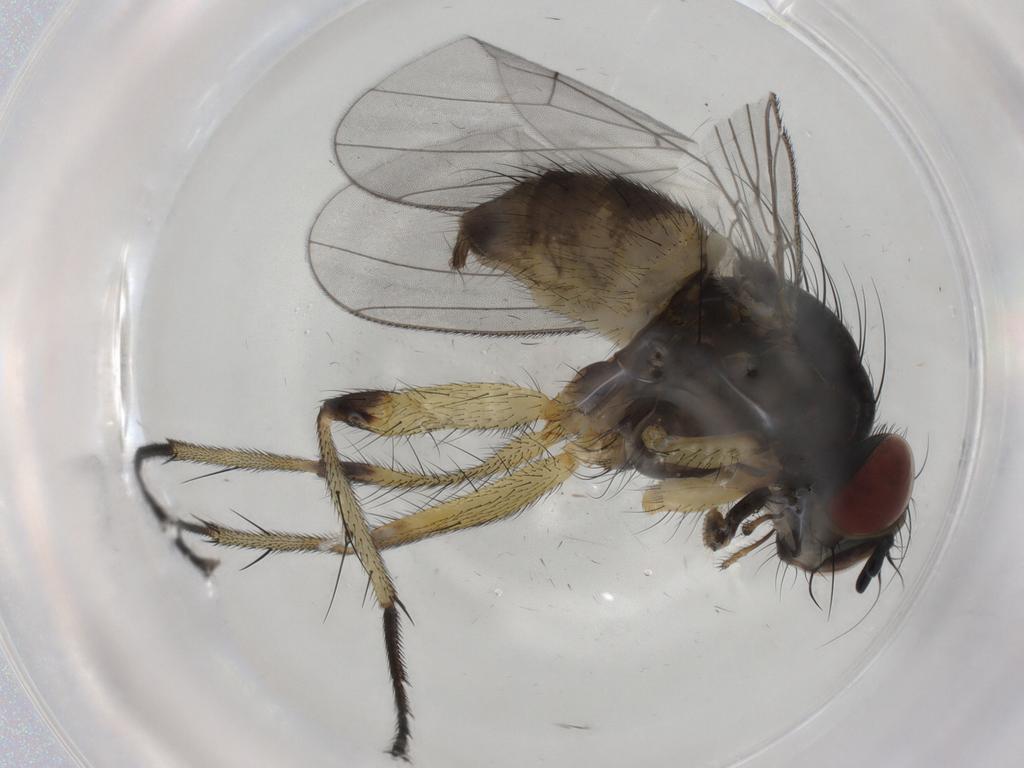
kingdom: Animalia
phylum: Arthropoda
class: Insecta
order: Diptera
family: Muscidae
